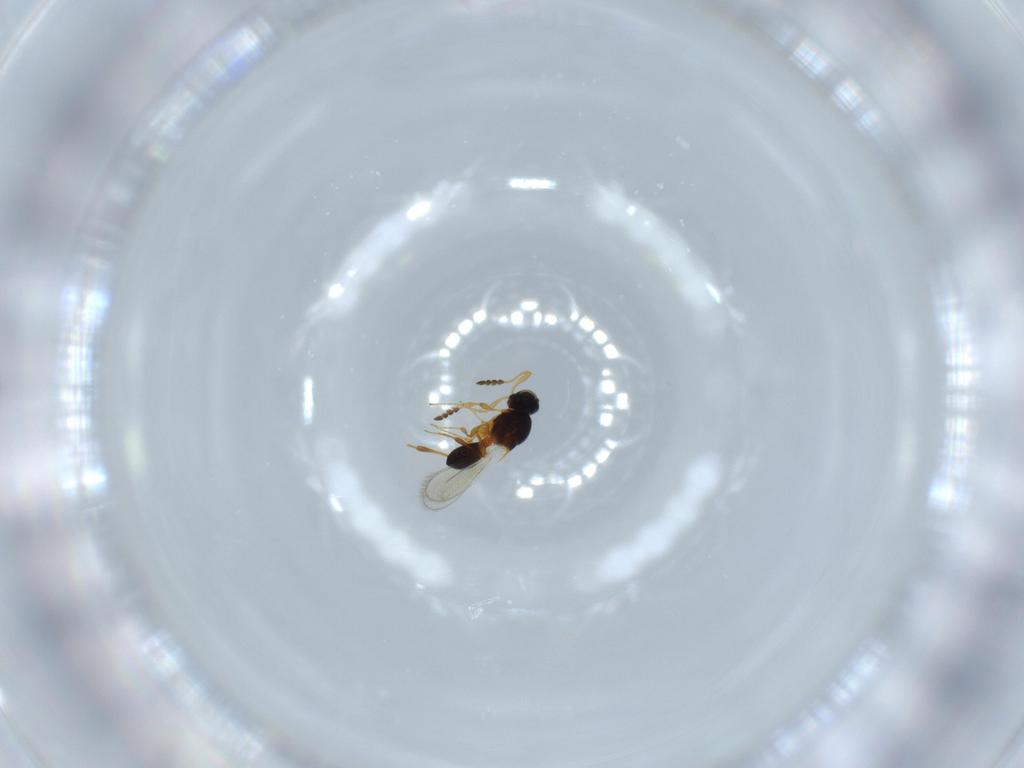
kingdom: Animalia
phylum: Arthropoda
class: Insecta
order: Hymenoptera
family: Platygastridae
